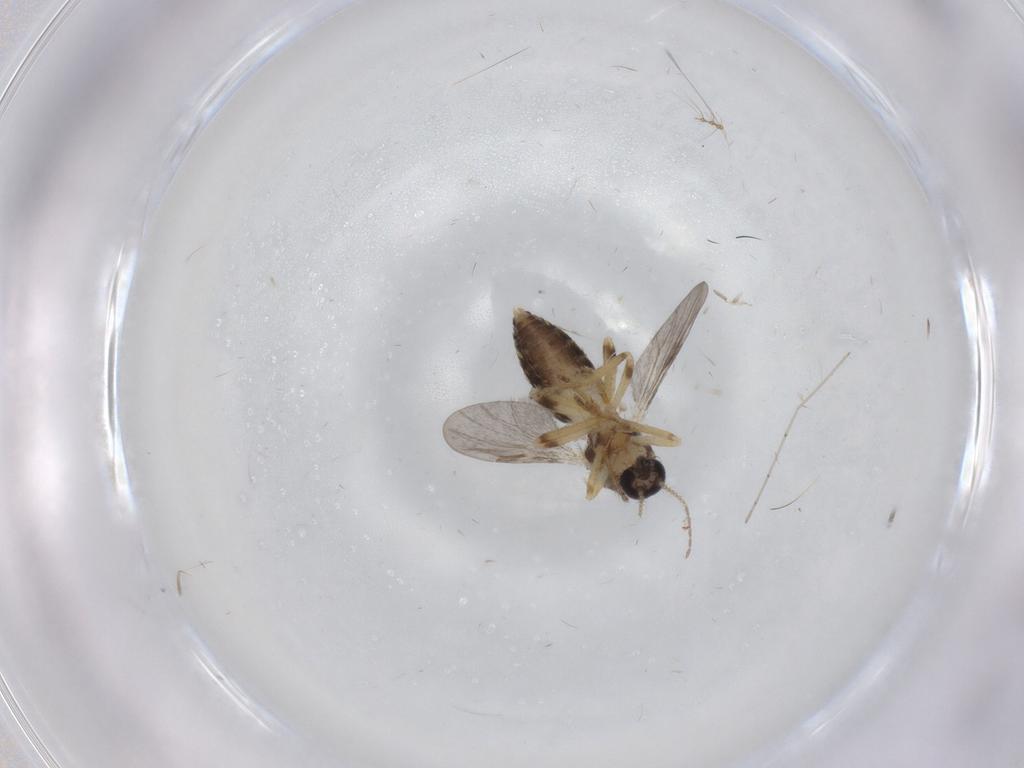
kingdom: Animalia
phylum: Arthropoda
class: Insecta
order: Diptera
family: Ceratopogonidae
